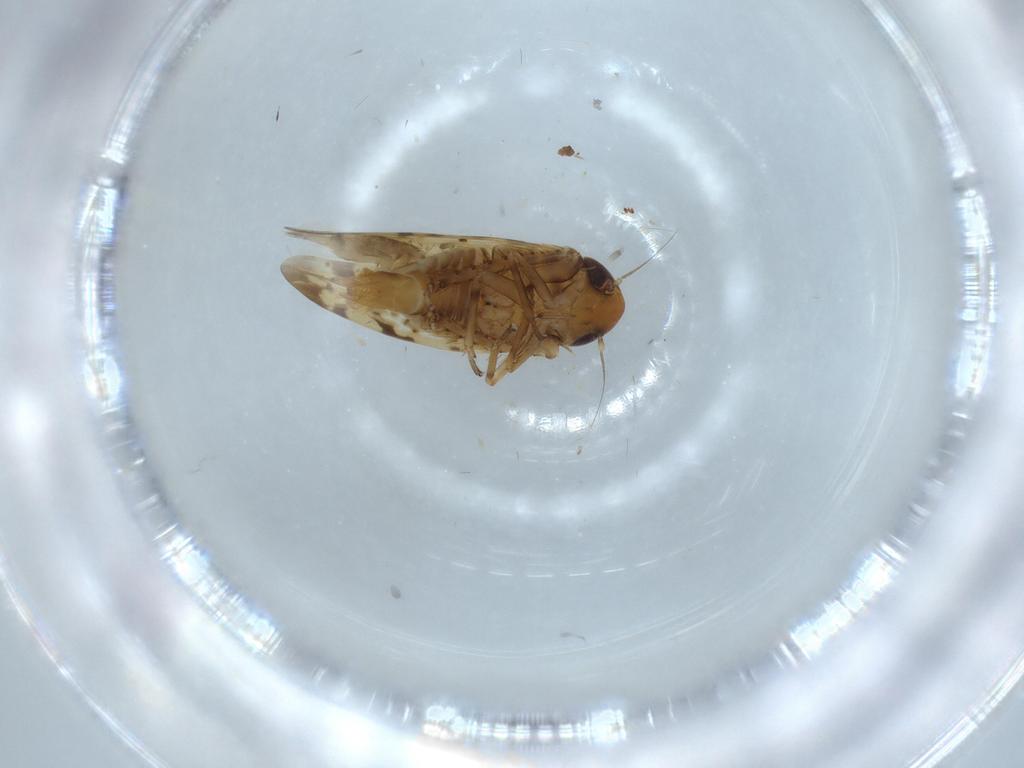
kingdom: Animalia
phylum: Arthropoda
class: Insecta
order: Hemiptera
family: Cicadellidae
